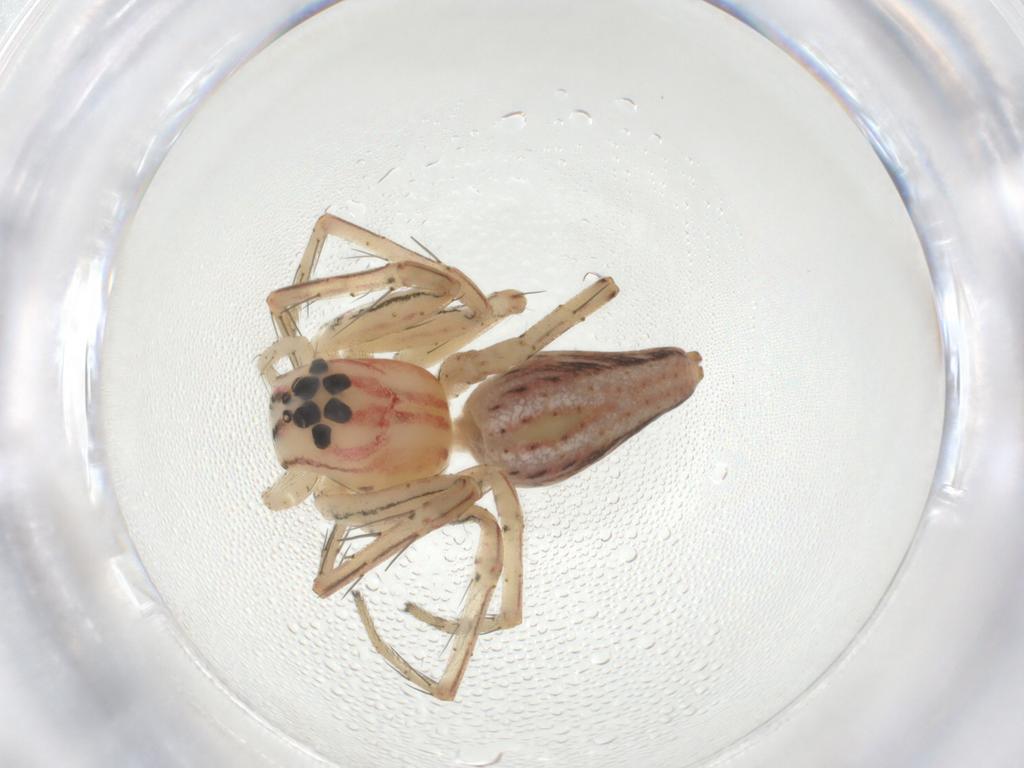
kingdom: Animalia
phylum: Arthropoda
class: Arachnida
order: Araneae
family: Oxyopidae
